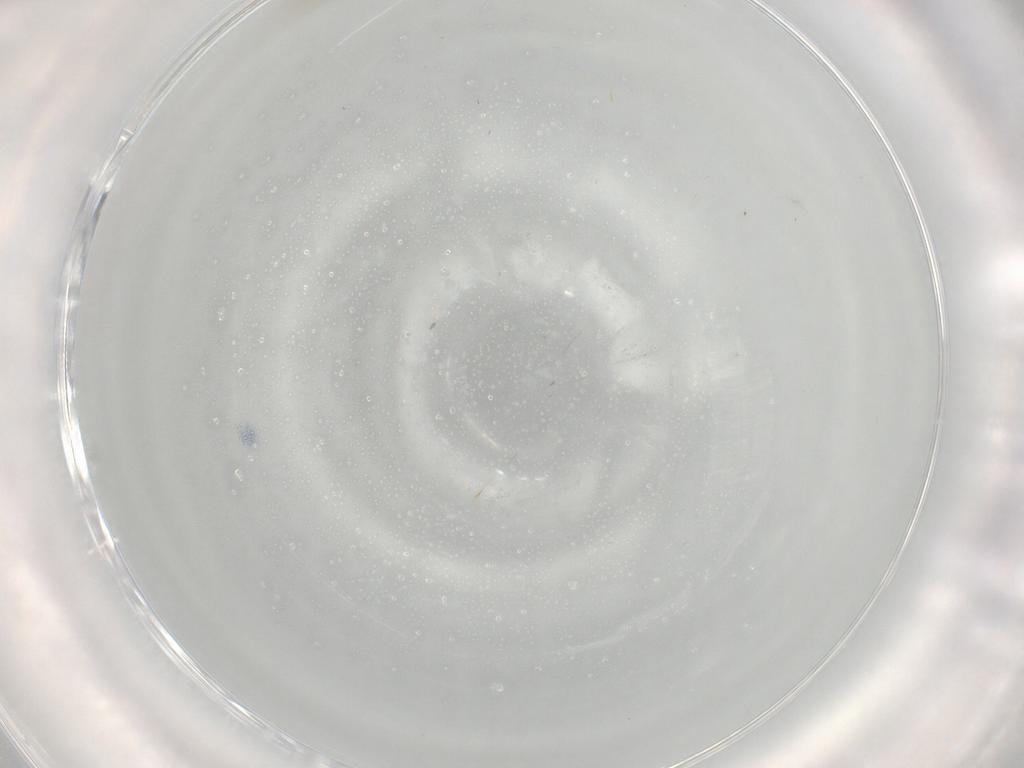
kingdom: Animalia
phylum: Arthropoda
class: Insecta
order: Diptera
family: Cecidomyiidae
